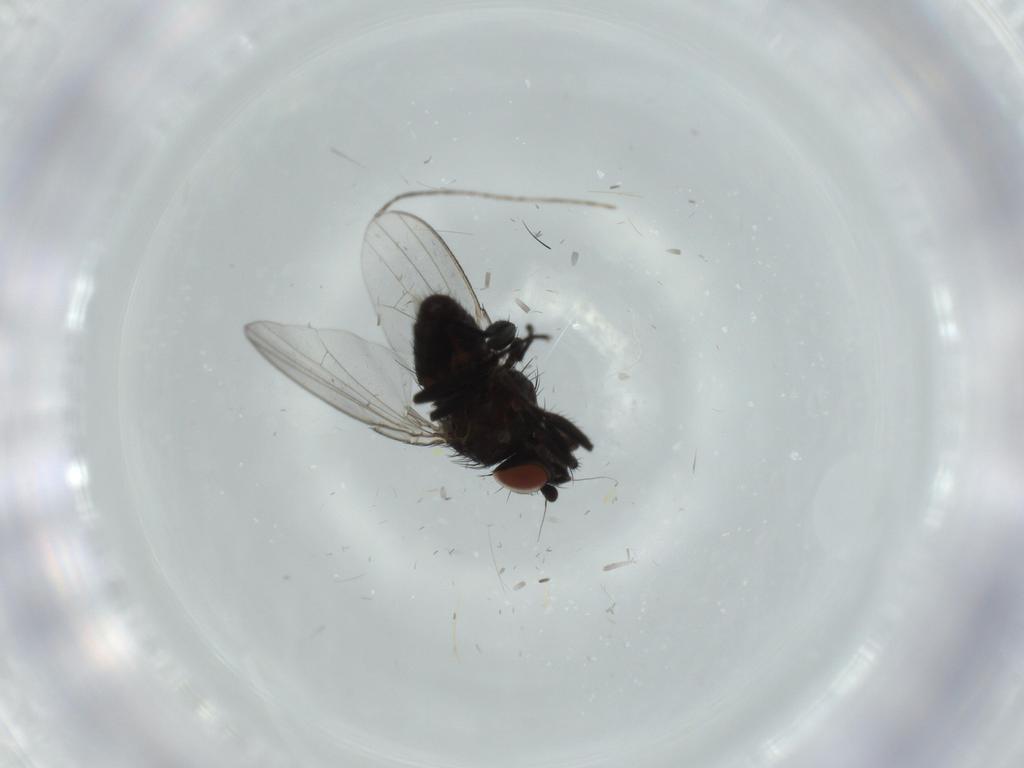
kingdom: Animalia
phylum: Arthropoda
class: Insecta
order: Diptera
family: Milichiidae
